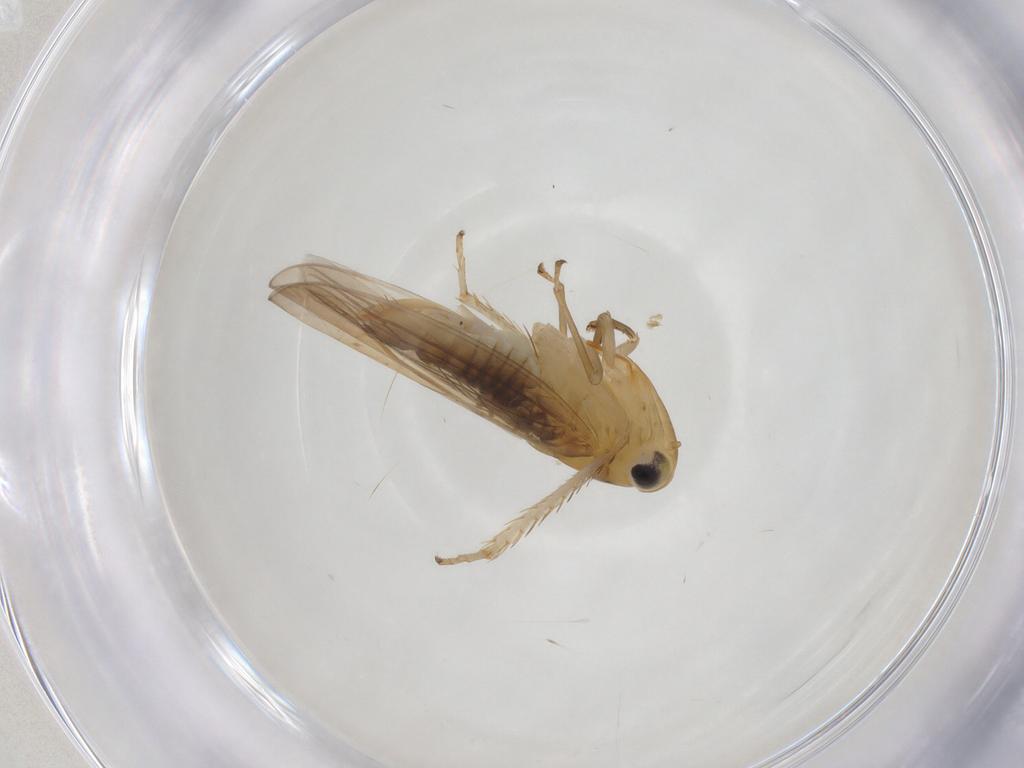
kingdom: Animalia
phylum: Arthropoda
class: Insecta
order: Hemiptera
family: Cicadellidae
